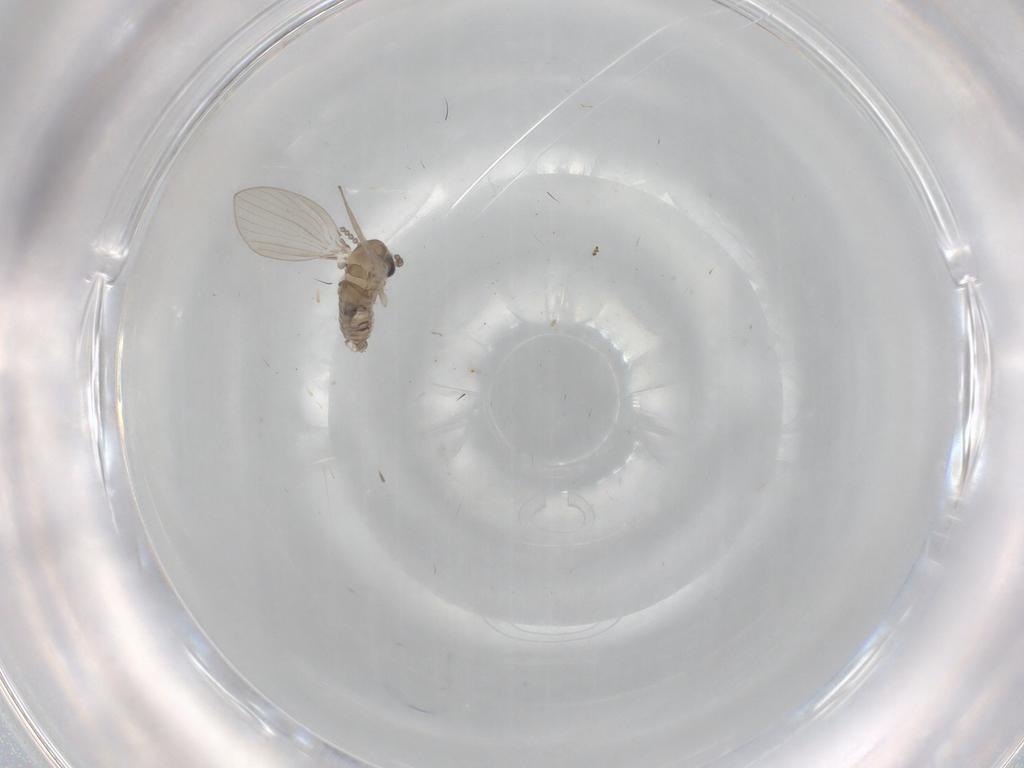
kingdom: Animalia
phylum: Arthropoda
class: Insecta
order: Diptera
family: Psychodidae
